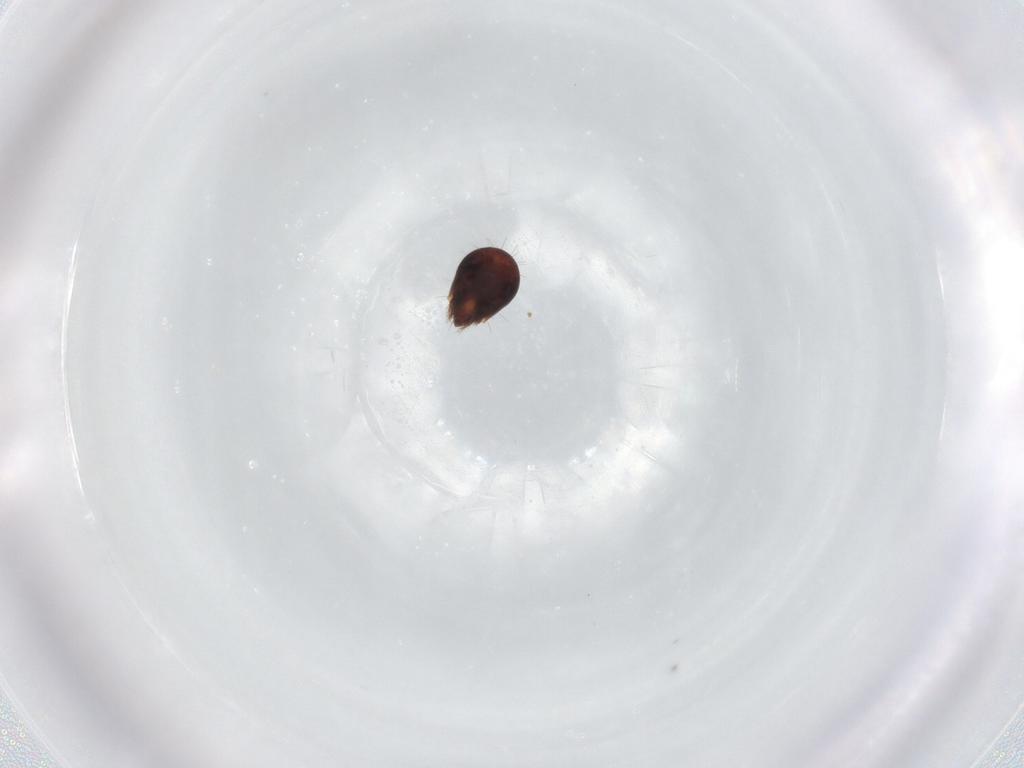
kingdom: Animalia
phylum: Arthropoda
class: Arachnida
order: Sarcoptiformes
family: Humerobatidae
